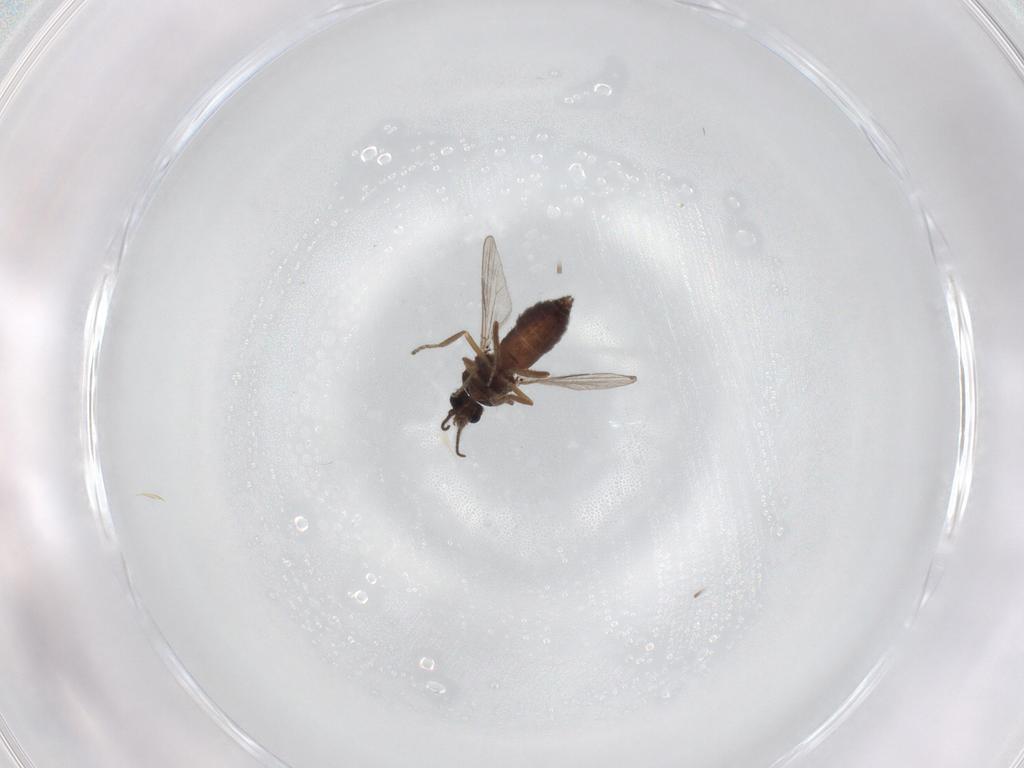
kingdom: Animalia
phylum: Arthropoda
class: Insecta
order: Diptera
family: Ceratopogonidae
